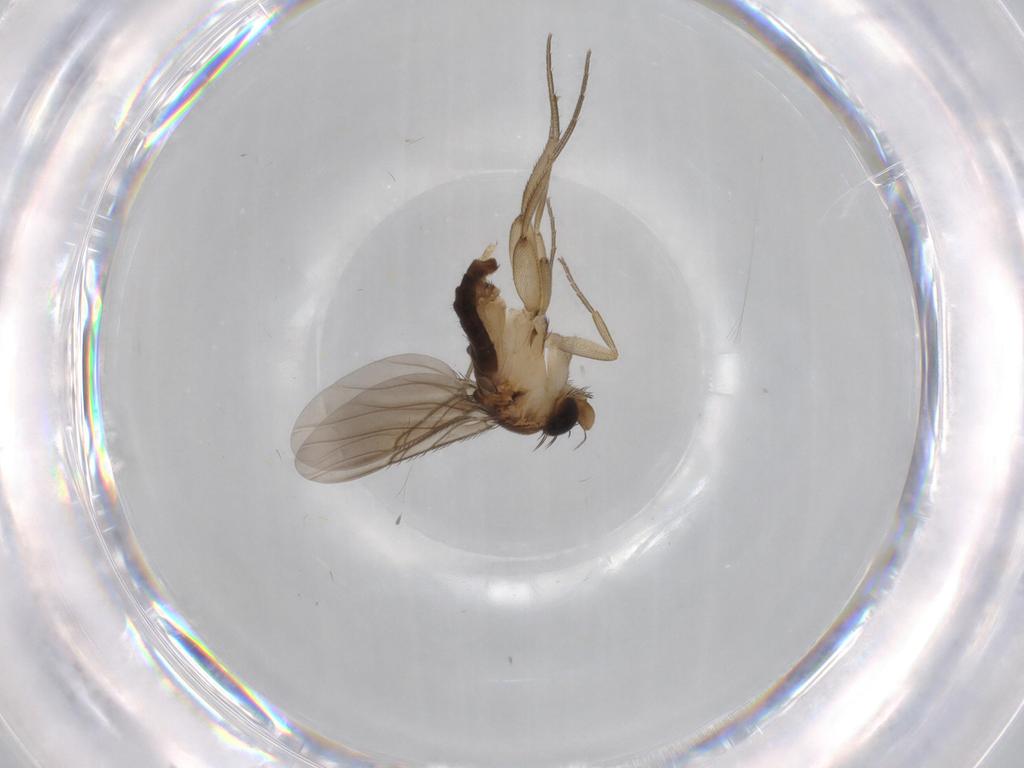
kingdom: Animalia
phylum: Arthropoda
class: Insecta
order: Diptera
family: Phoridae
